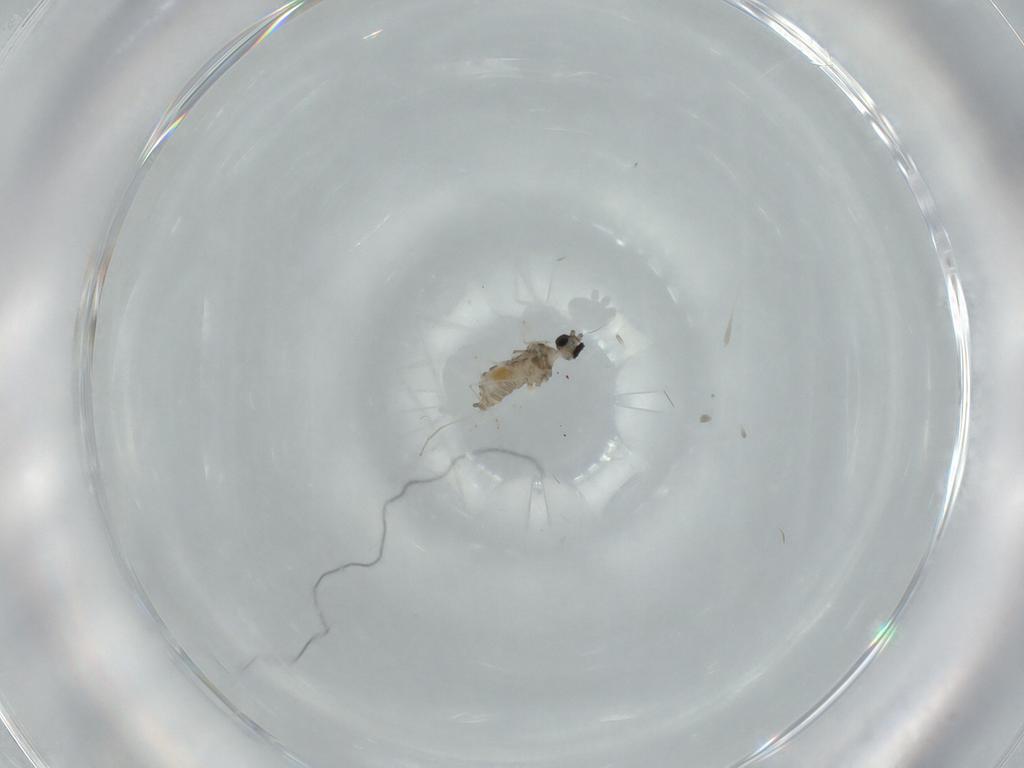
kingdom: Animalia
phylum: Arthropoda
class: Insecta
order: Diptera
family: Cecidomyiidae
